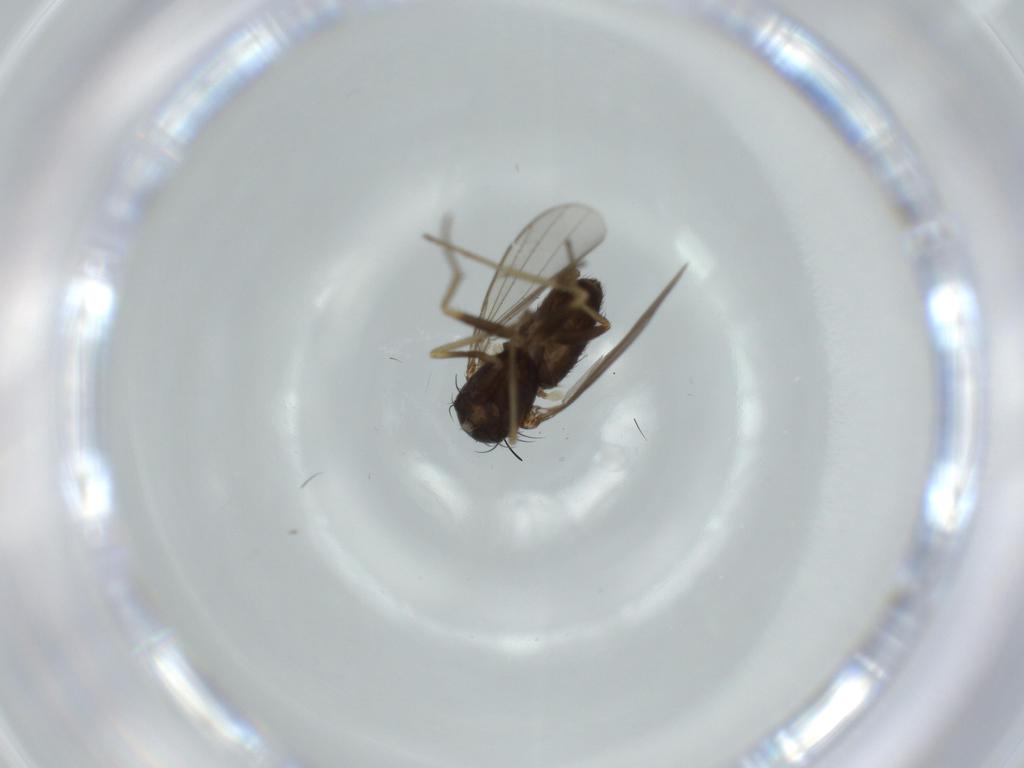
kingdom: Animalia
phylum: Arthropoda
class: Insecta
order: Diptera
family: Dolichopodidae
